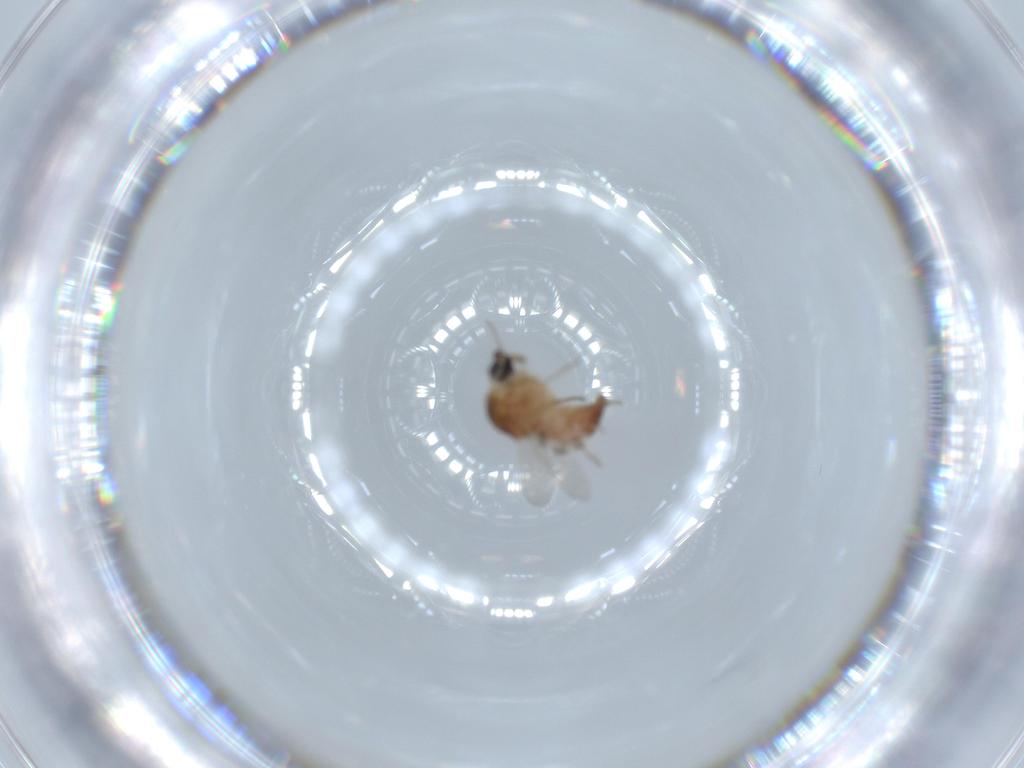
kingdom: Animalia
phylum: Arthropoda
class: Insecta
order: Diptera
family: Ceratopogonidae
